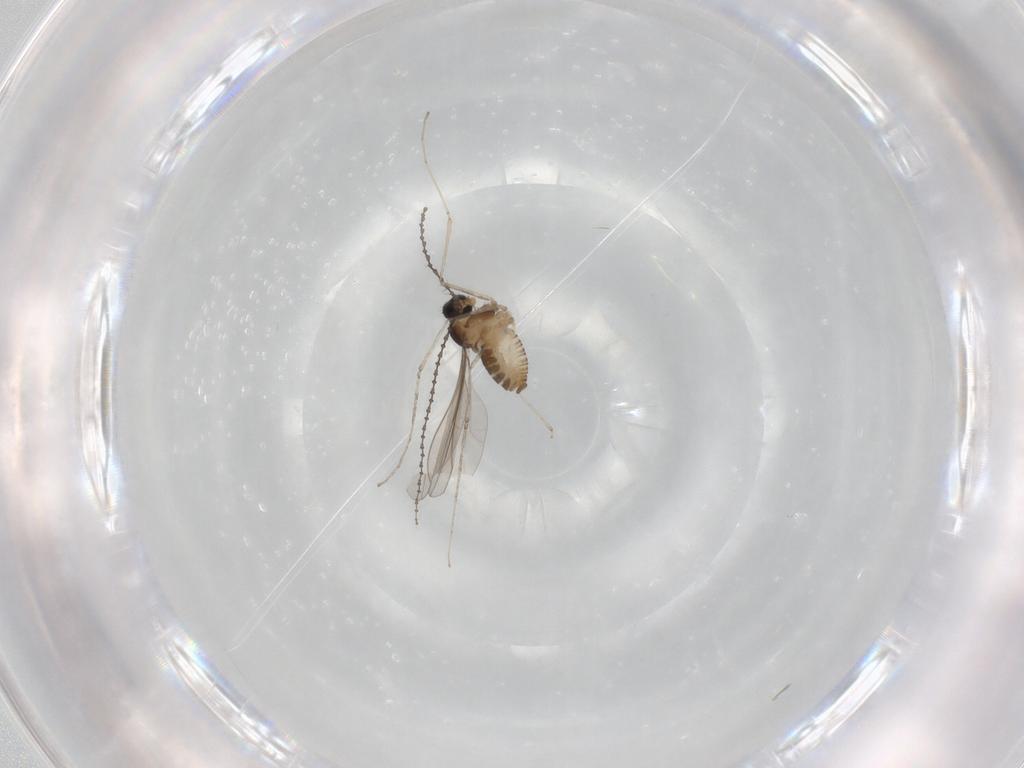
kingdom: Animalia
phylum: Arthropoda
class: Insecta
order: Diptera
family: Cecidomyiidae
